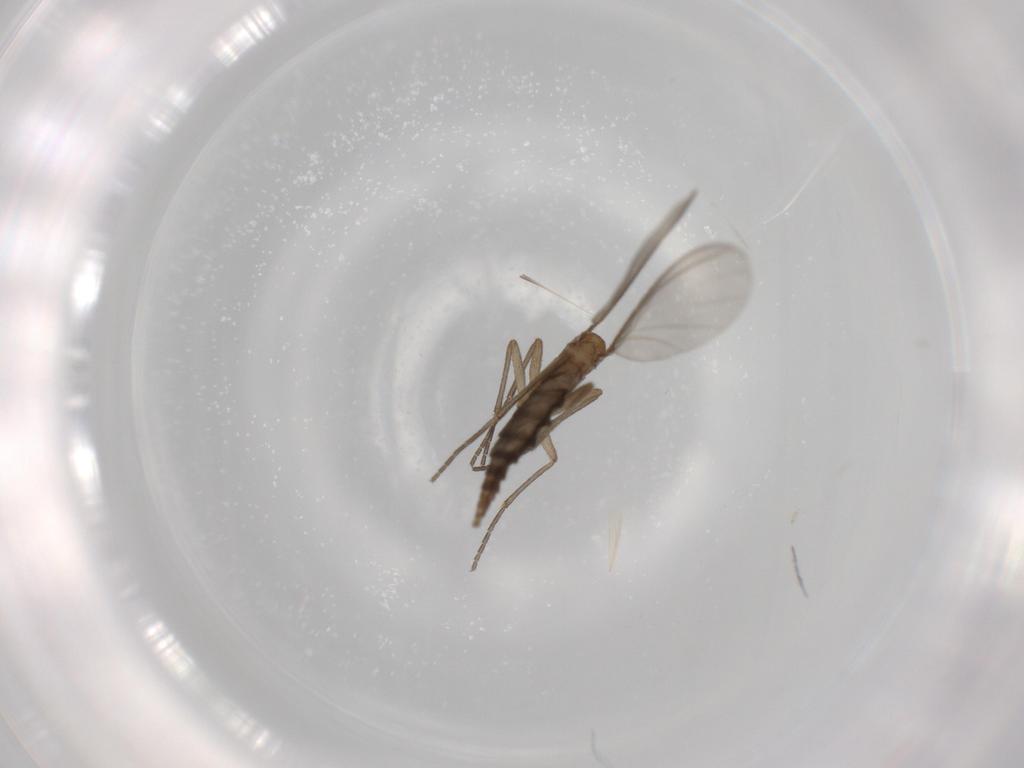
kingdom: Animalia
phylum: Arthropoda
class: Insecta
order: Diptera
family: Sciaridae
